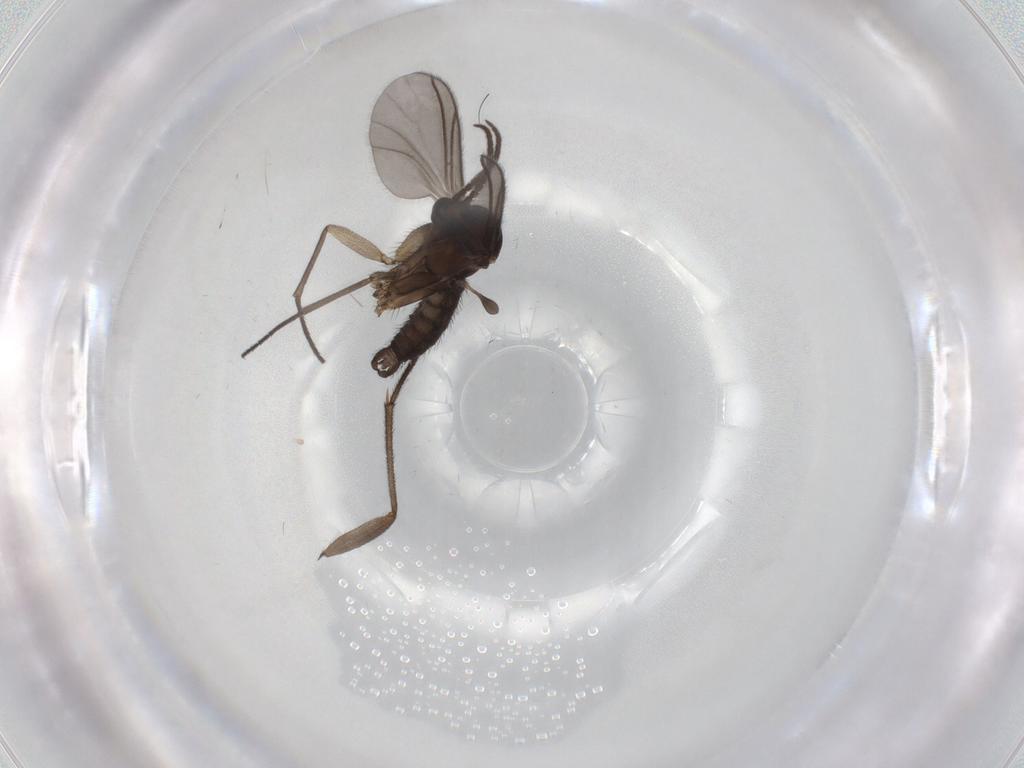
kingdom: Animalia
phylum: Arthropoda
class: Insecta
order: Diptera
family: Sciaridae
